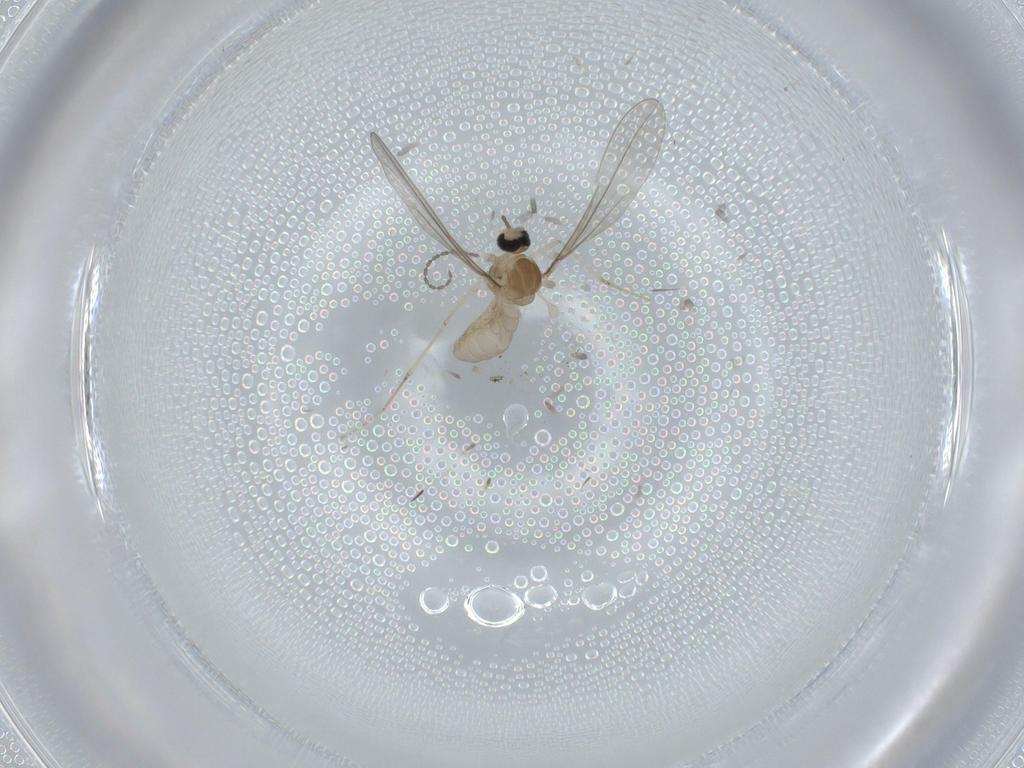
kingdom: Animalia
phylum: Arthropoda
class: Insecta
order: Diptera
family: Cecidomyiidae
